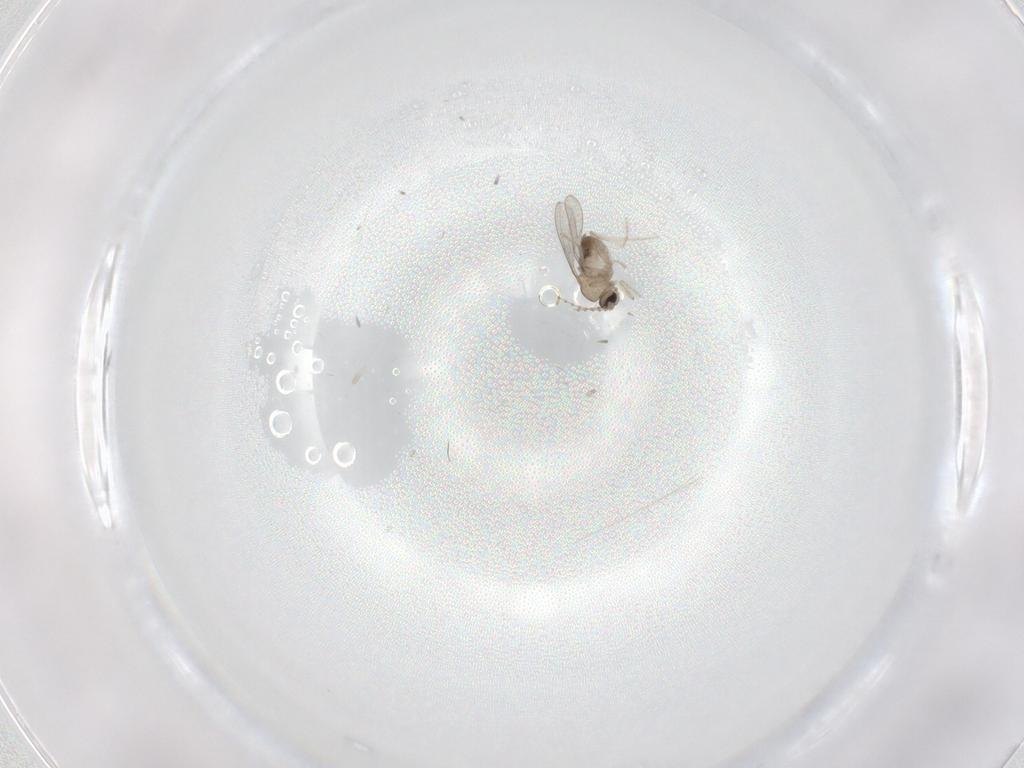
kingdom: Animalia
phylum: Arthropoda
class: Insecta
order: Diptera
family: Cecidomyiidae
